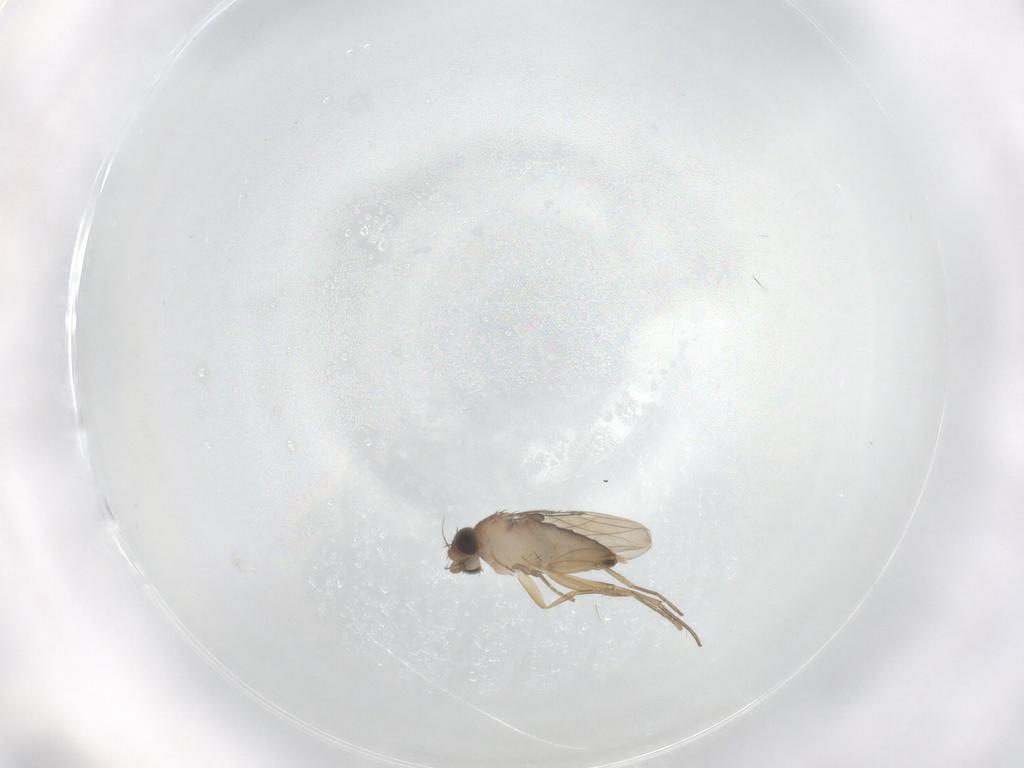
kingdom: Animalia
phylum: Arthropoda
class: Insecta
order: Diptera
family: Phoridae
